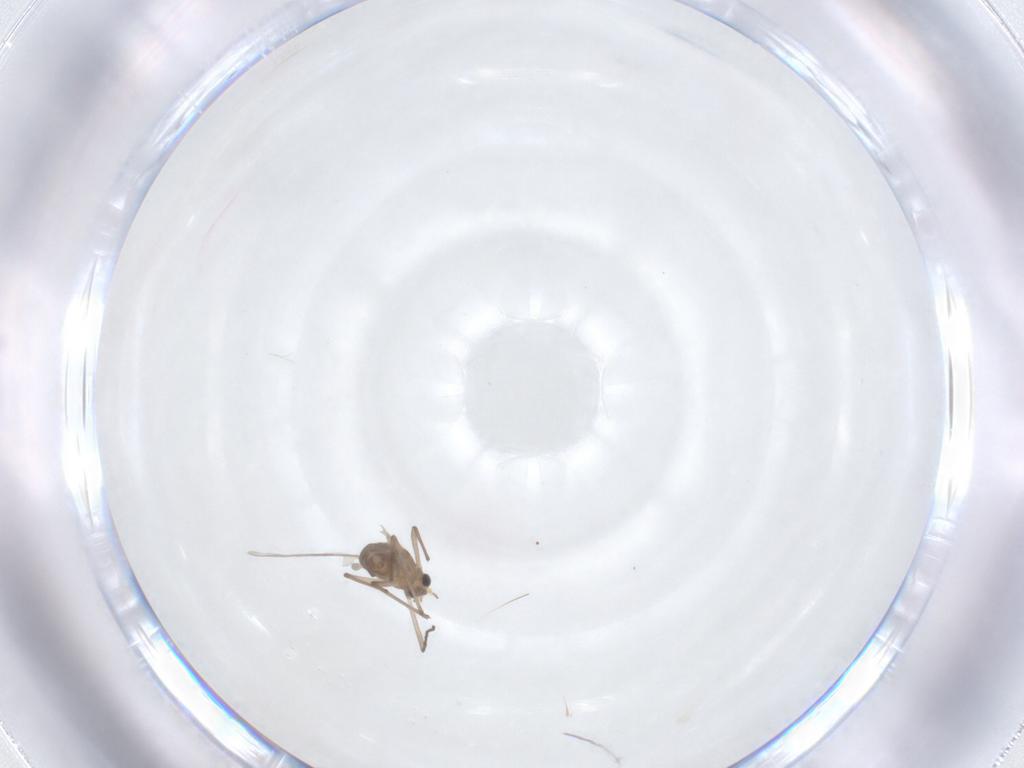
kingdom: Animalia
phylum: Arthropoda
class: Insecta
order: Diptera
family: Chironomidae
